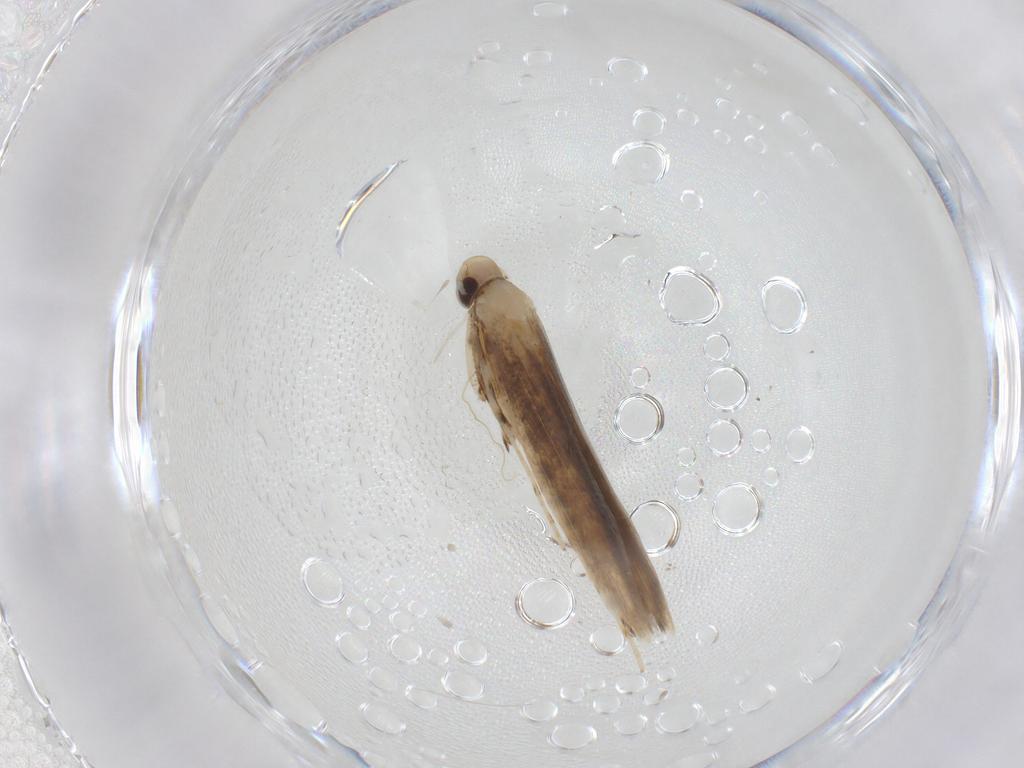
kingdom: Animalia
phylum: Arthropoda
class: Insecta
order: Lepidoptera
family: Gracillariidae
